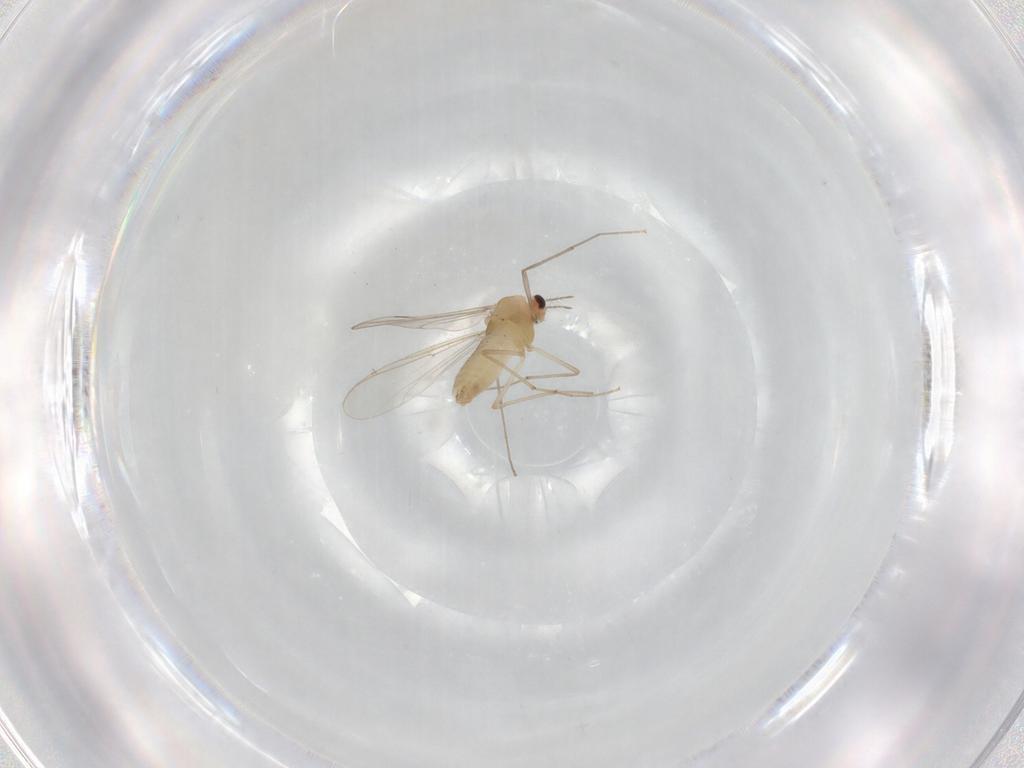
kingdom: Animalia
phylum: Arthropoda
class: Insecta
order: Diptera
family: Chironomidae
